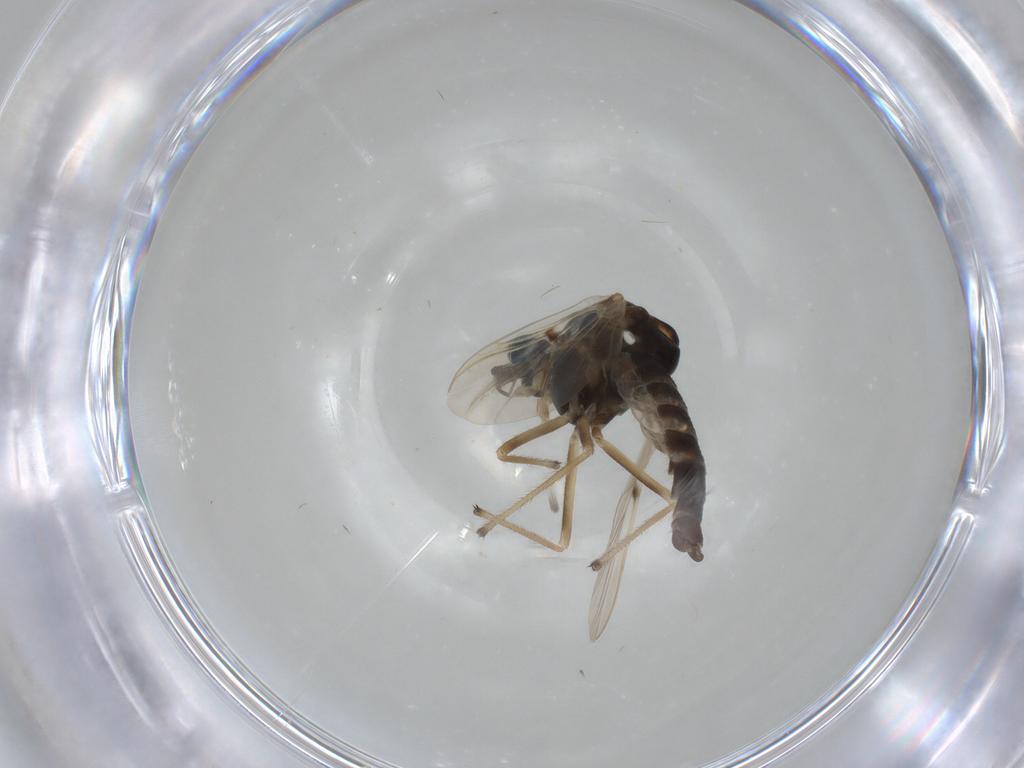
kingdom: Animalia
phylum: Arthropoda
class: Insecta
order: Diptera
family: Chironomidae
